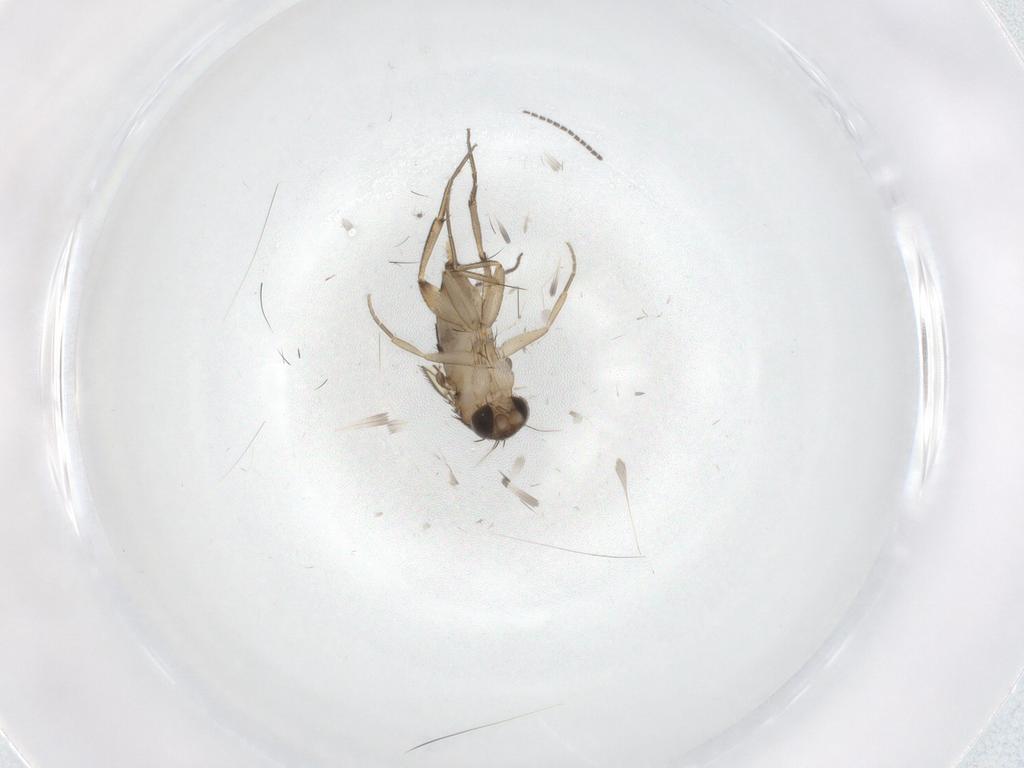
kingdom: Animalia
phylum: Arthropoda
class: Insecta
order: Diptera
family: Phoridae
